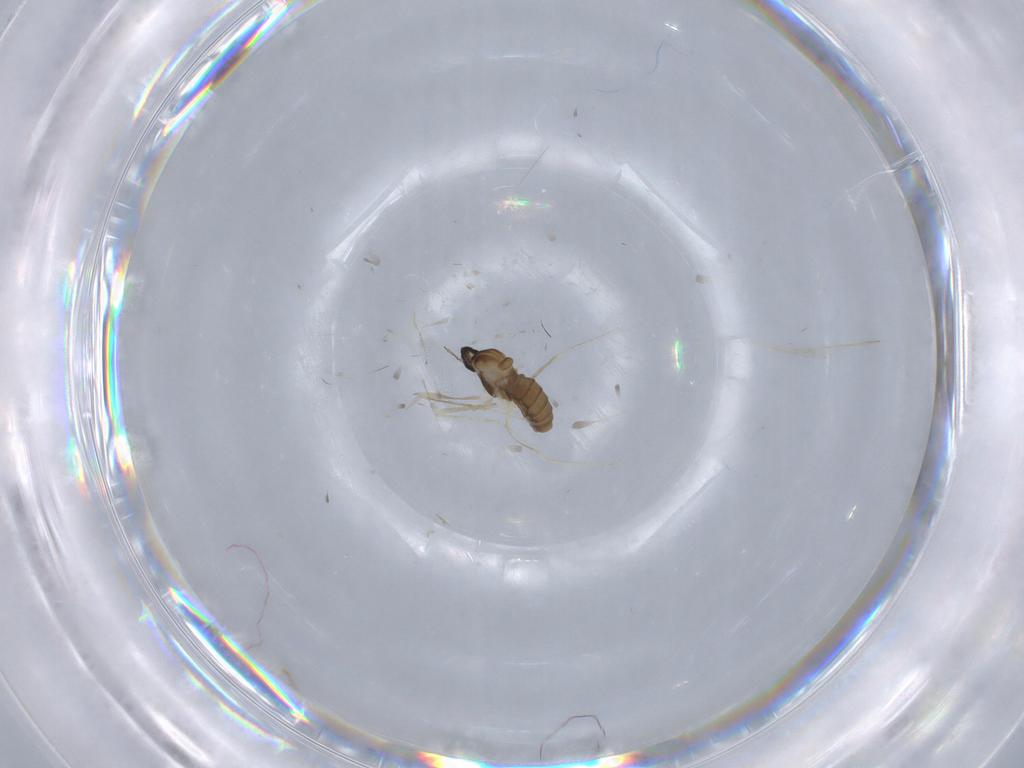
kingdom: Animalia
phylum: Arthropoda
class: Insecta
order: Diptera
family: Cecidomyiidae
